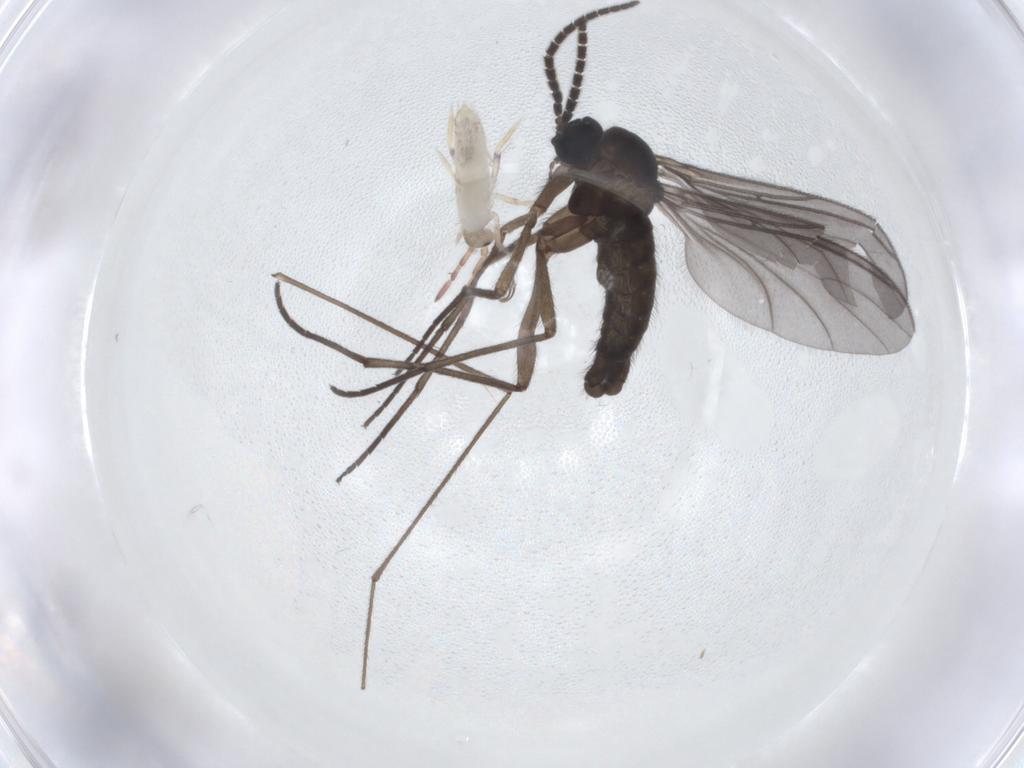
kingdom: Animalia
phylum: Arthropoda
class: Insecta
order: Diptera
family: Sciaridae
